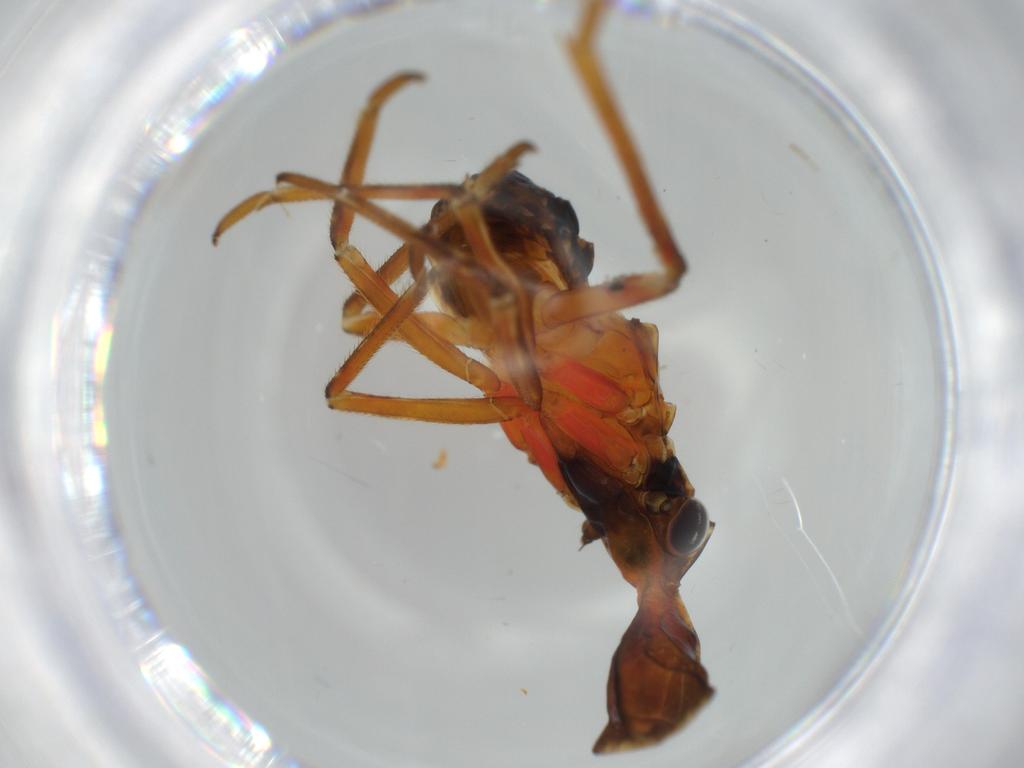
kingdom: Animalia
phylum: Arthropoda
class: Insecta
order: Hemiptera
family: Fulgoridae
